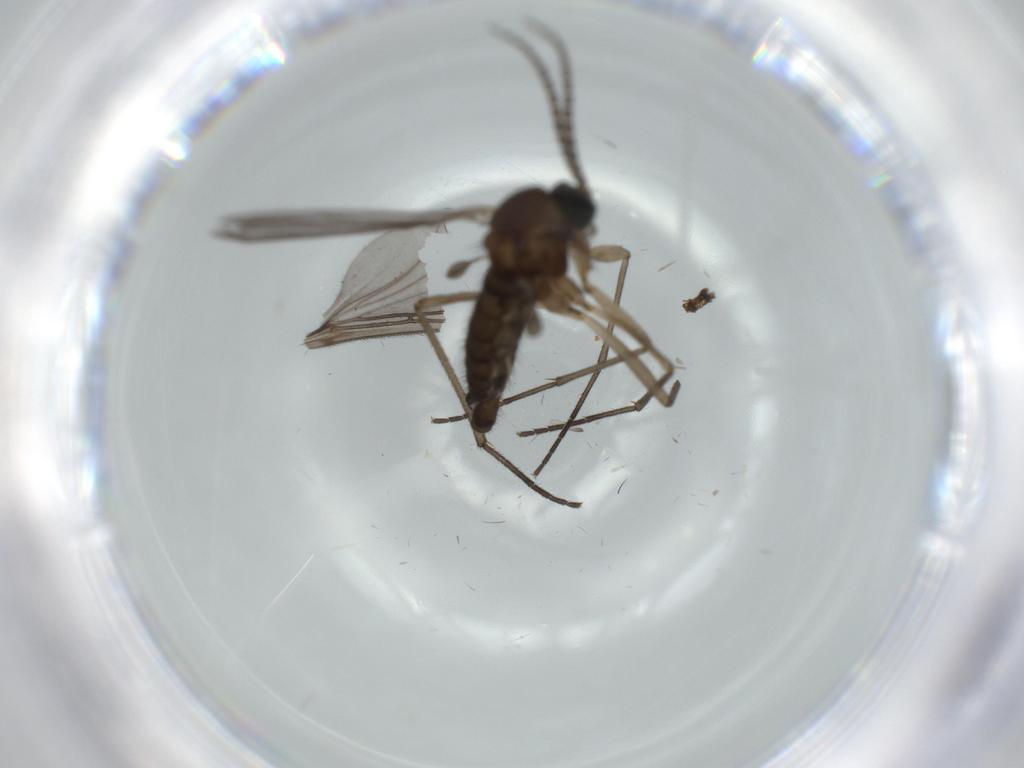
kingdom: Animalia
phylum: Arthropoda
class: Insecta
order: Diptera
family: Sciaridae
